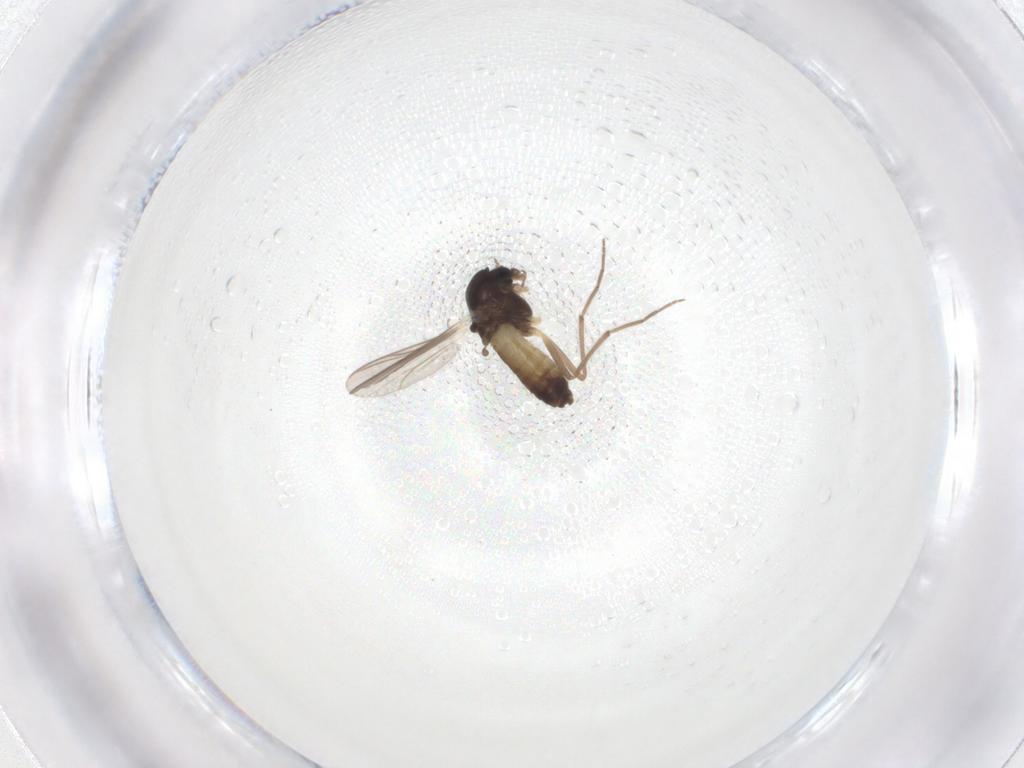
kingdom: Animalia
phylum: Arthropoda
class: Insecta
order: Diptera
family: Chironomidae
